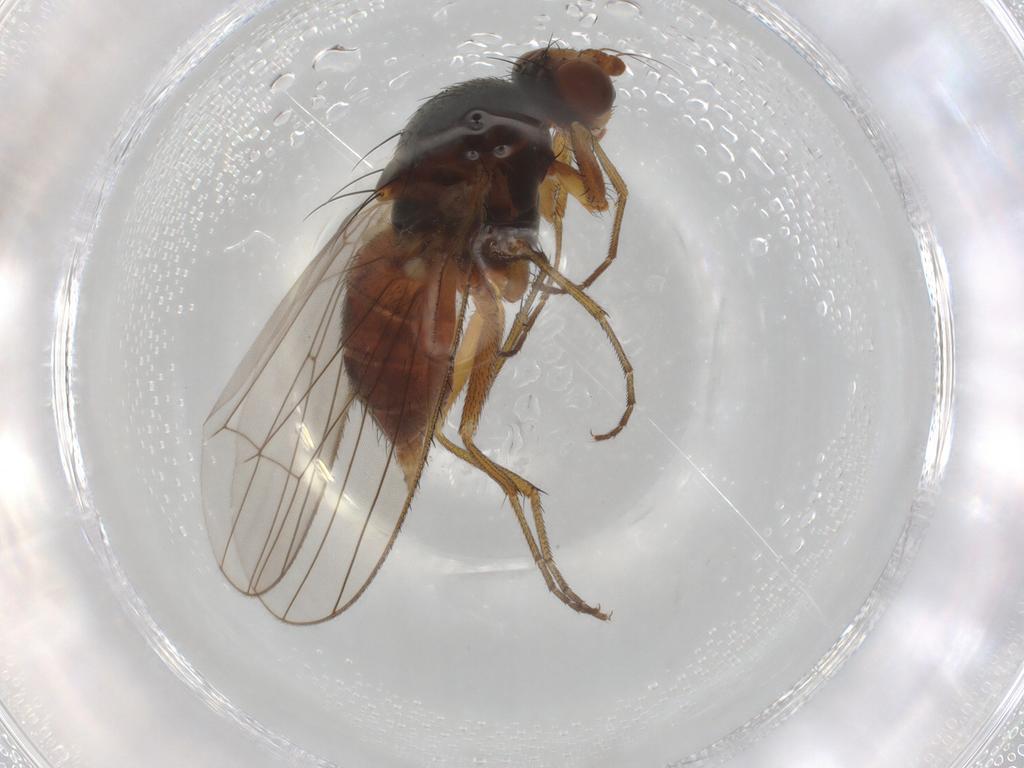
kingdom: Animalia
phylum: Arthropoda
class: Insecta
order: Diptera
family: Heleomyzidae
